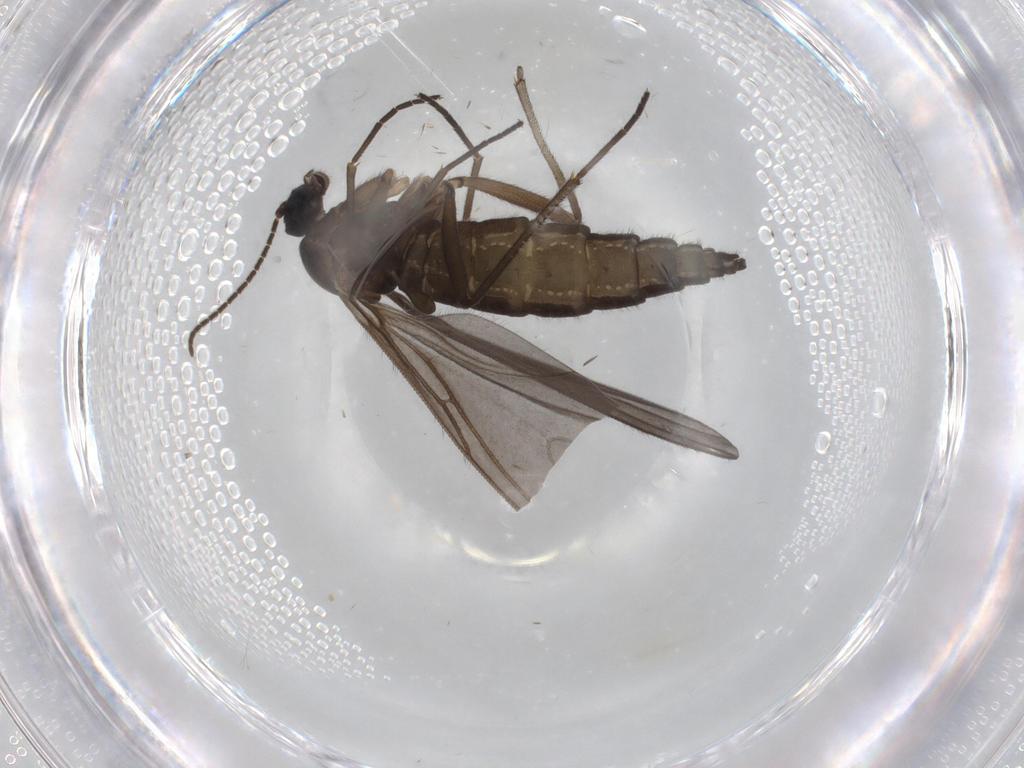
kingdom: Animalia
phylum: Arthropoda
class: Insecta
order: Diptera
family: Sciaridae
